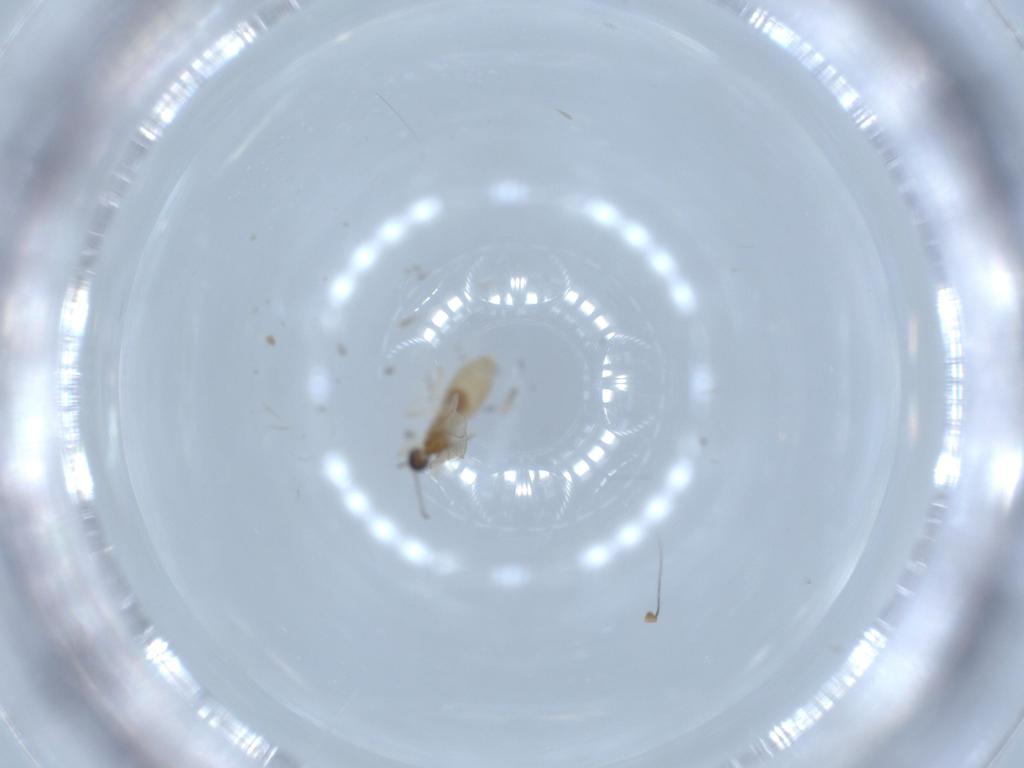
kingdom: Animalia
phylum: Arthropoda
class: Insecta
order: Diptera
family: Cecidomyiidae
